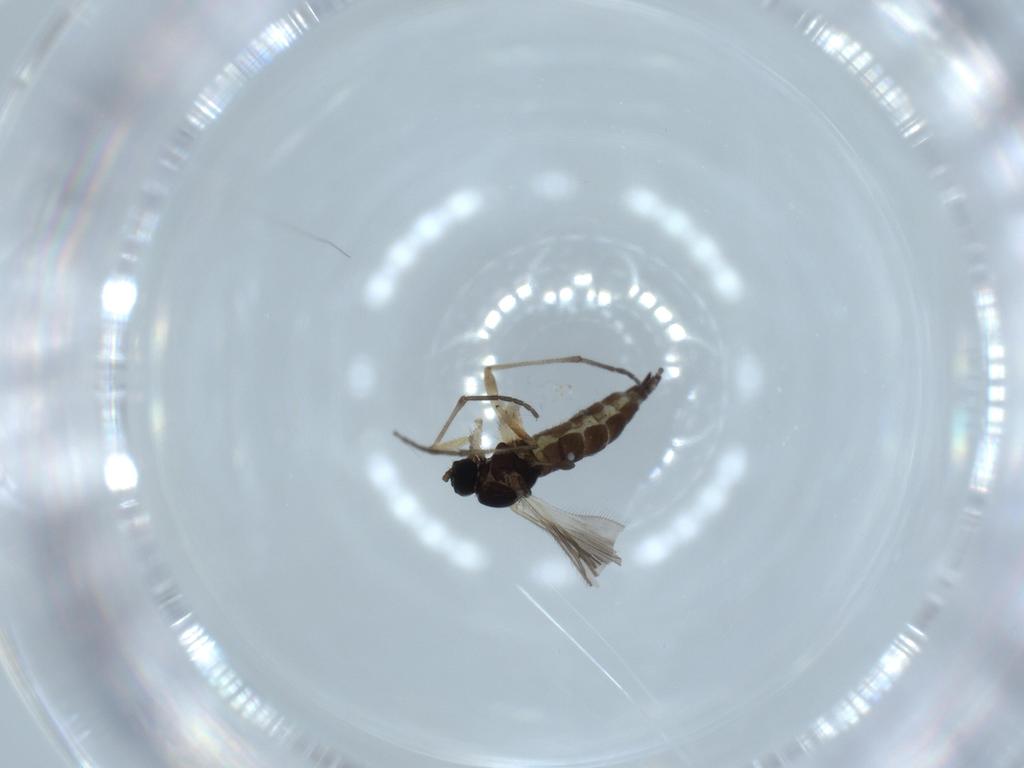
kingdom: Animalia
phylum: Arthropoda
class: Insecta
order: Diptera
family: Sciaridae
